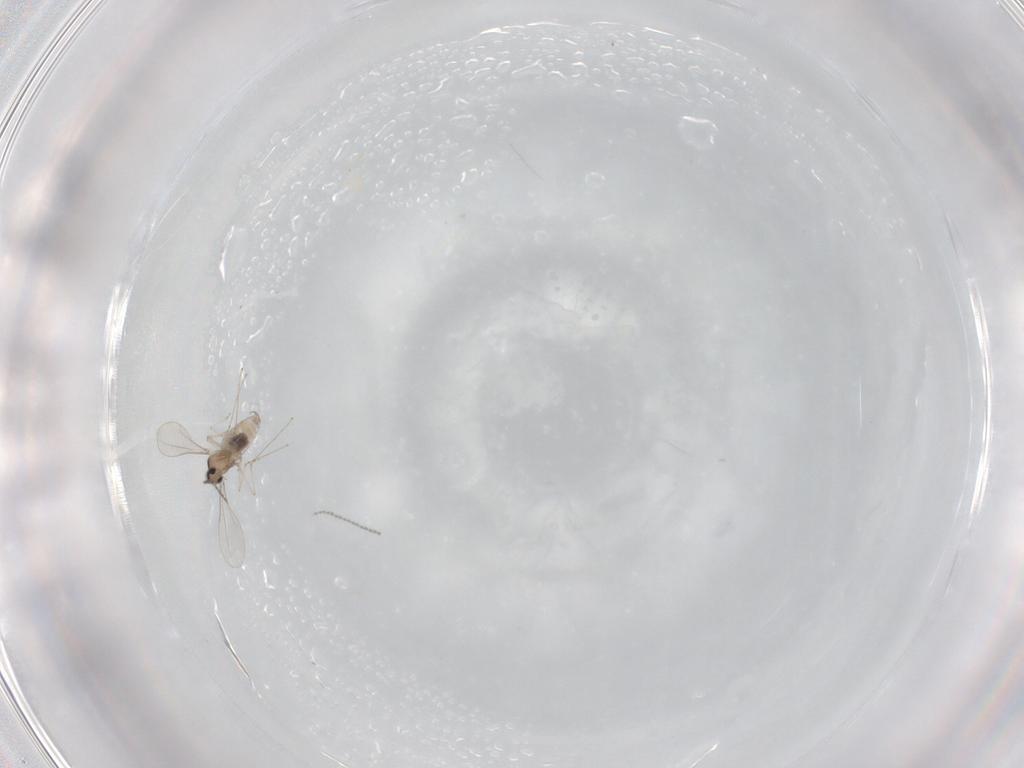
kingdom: Animalia
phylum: Arthropoda
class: Insecta
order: Diptera
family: Cecidomyiidae
